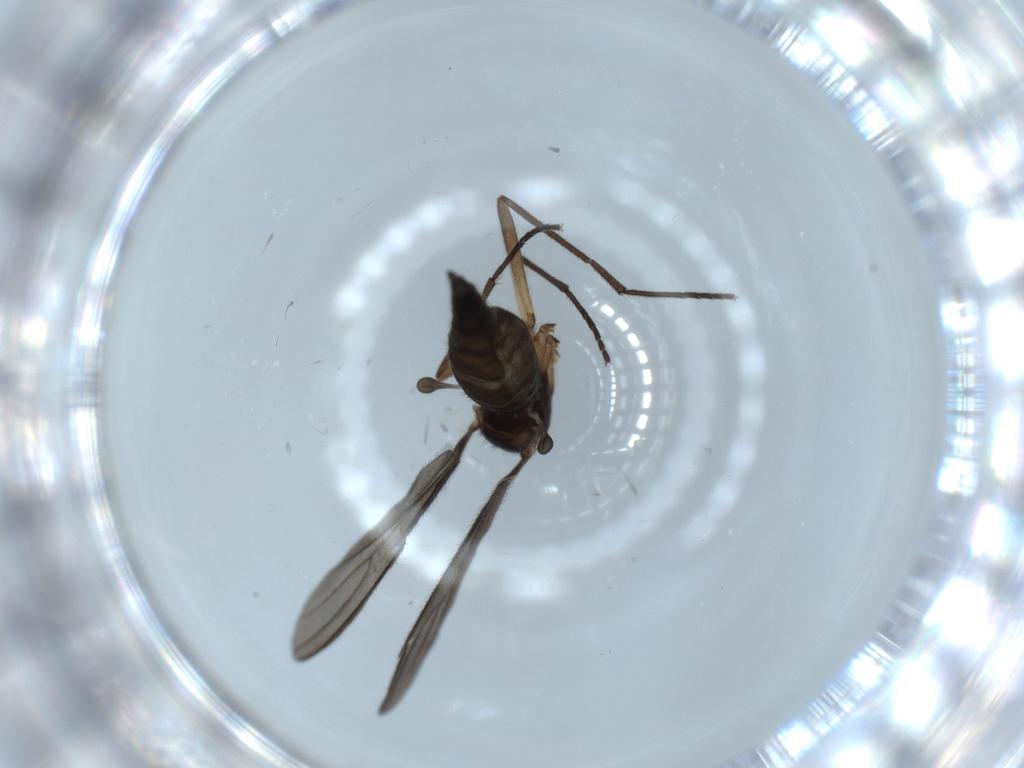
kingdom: Animalia
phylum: Arthropoda
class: Insecta
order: Diptera
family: Sciaridae
